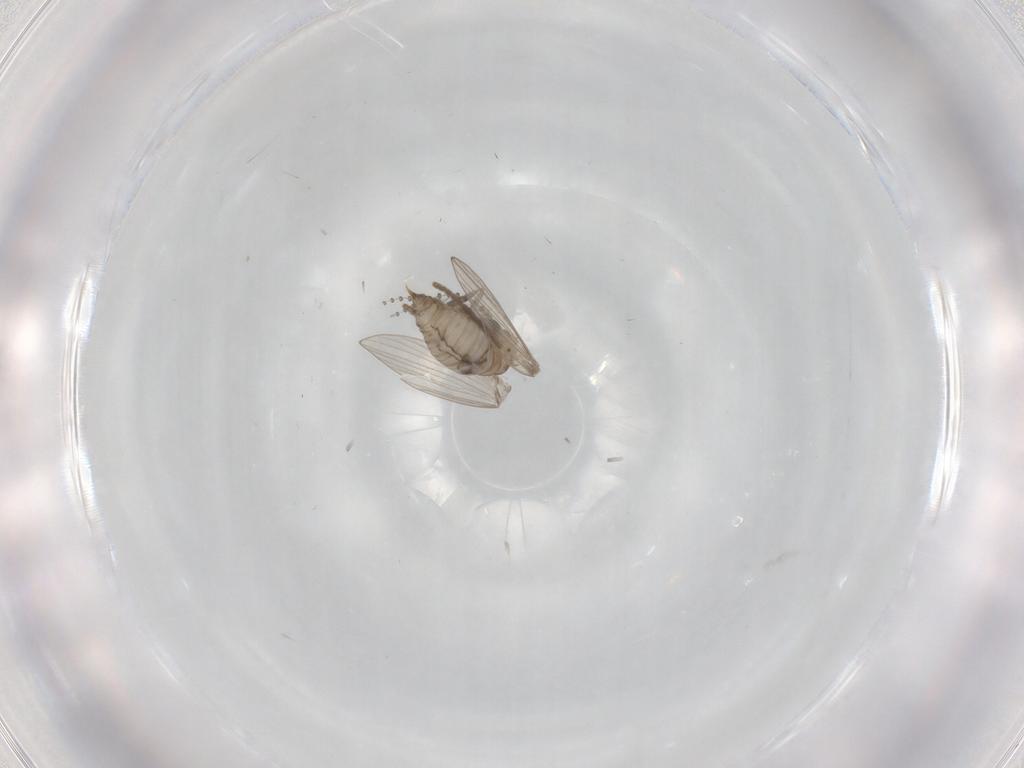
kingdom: Animalia
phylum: Arthropoda
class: Insecta
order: Diptera
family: Psychodidae
